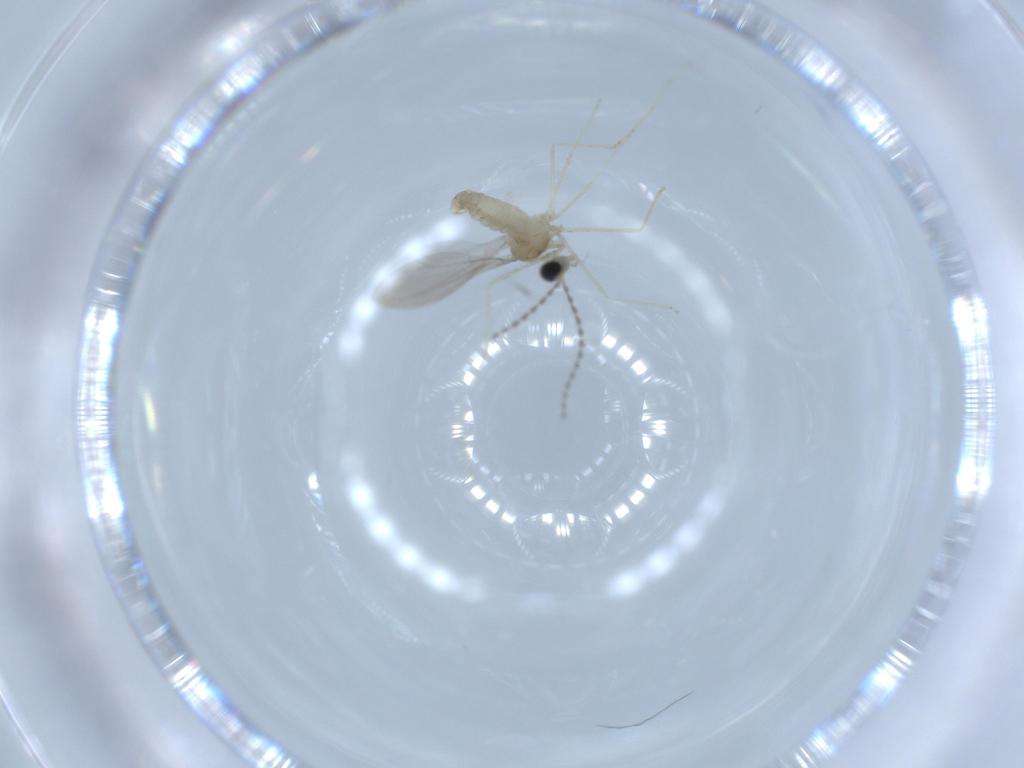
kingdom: Animalia
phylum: Arthropoda
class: Insecta
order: Diptera
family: Cecidomyiidae
